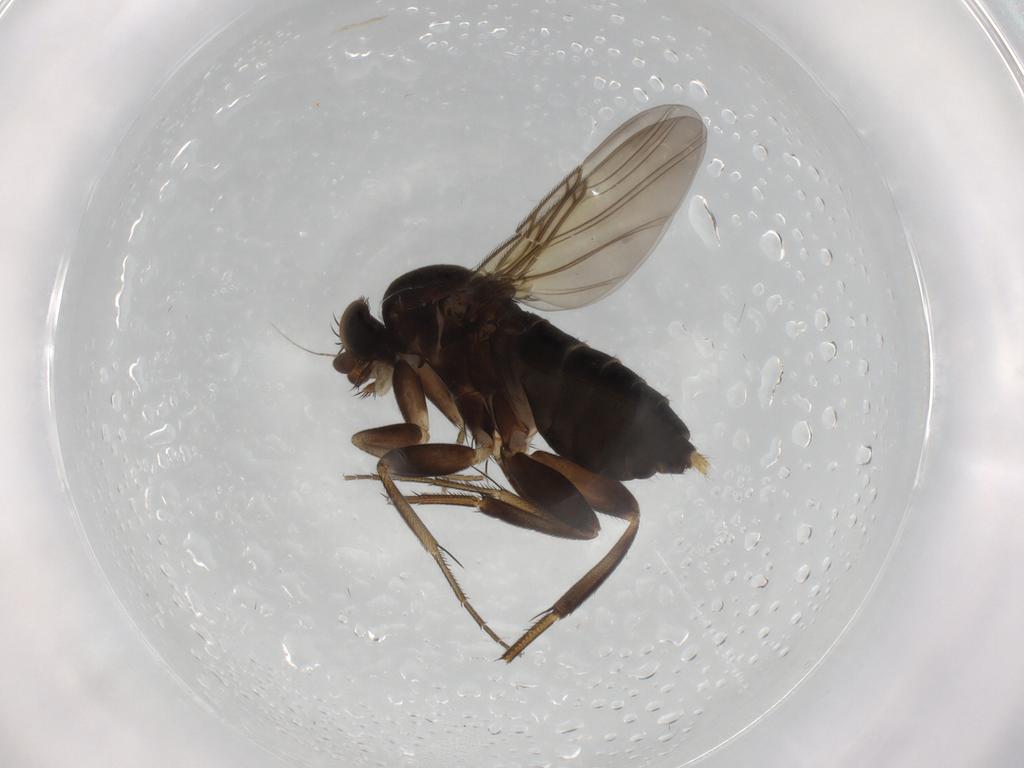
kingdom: Animalia
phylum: Arthropoda
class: Insecta
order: Diptera
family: Phoridae
